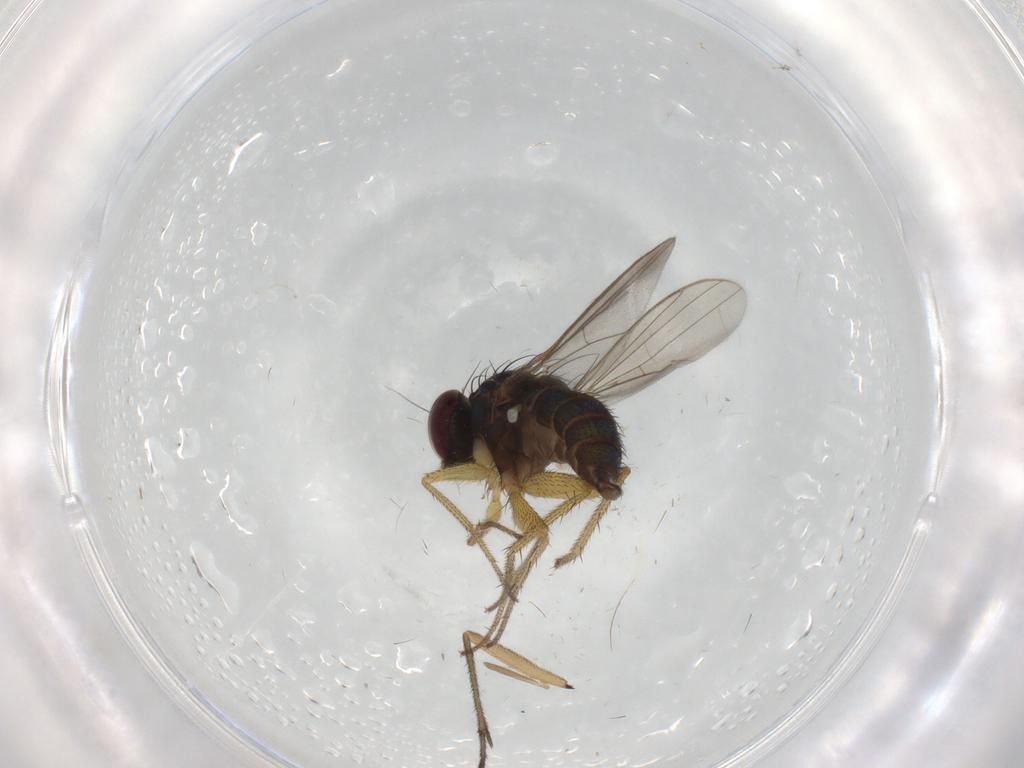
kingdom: Animalia
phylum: Arthropoda
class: Insecta
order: Diptera
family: Sciaridae
